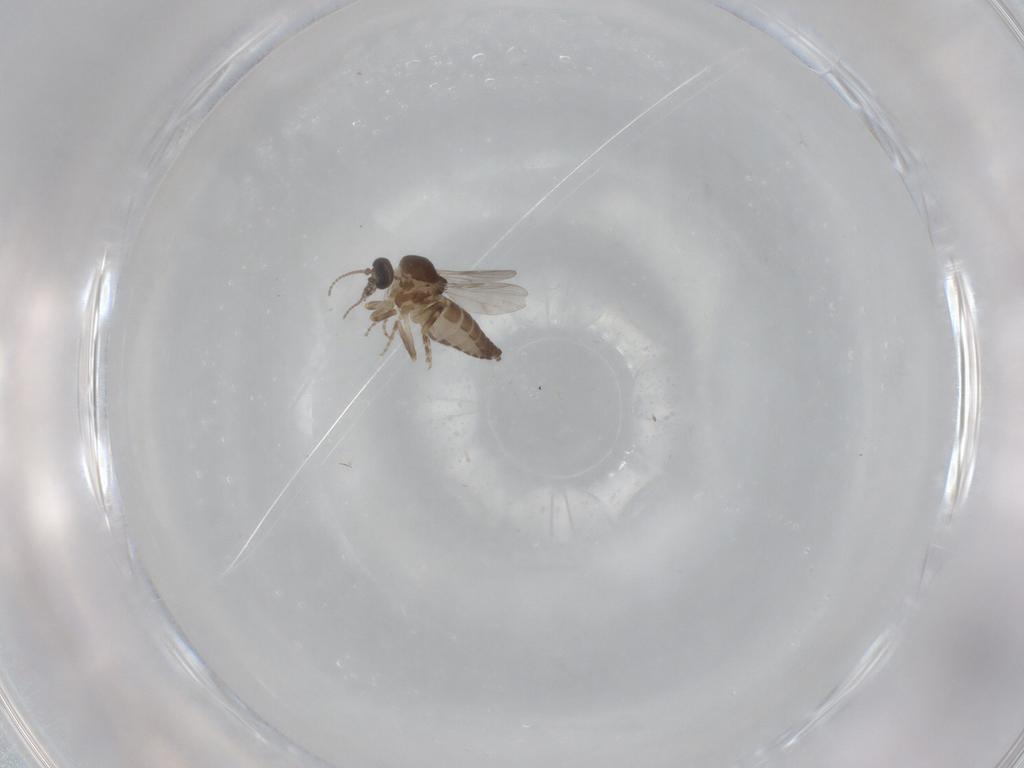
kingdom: Animalia
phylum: Arthropoda
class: Insecta
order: Diptera
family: Ceratopogonidae
